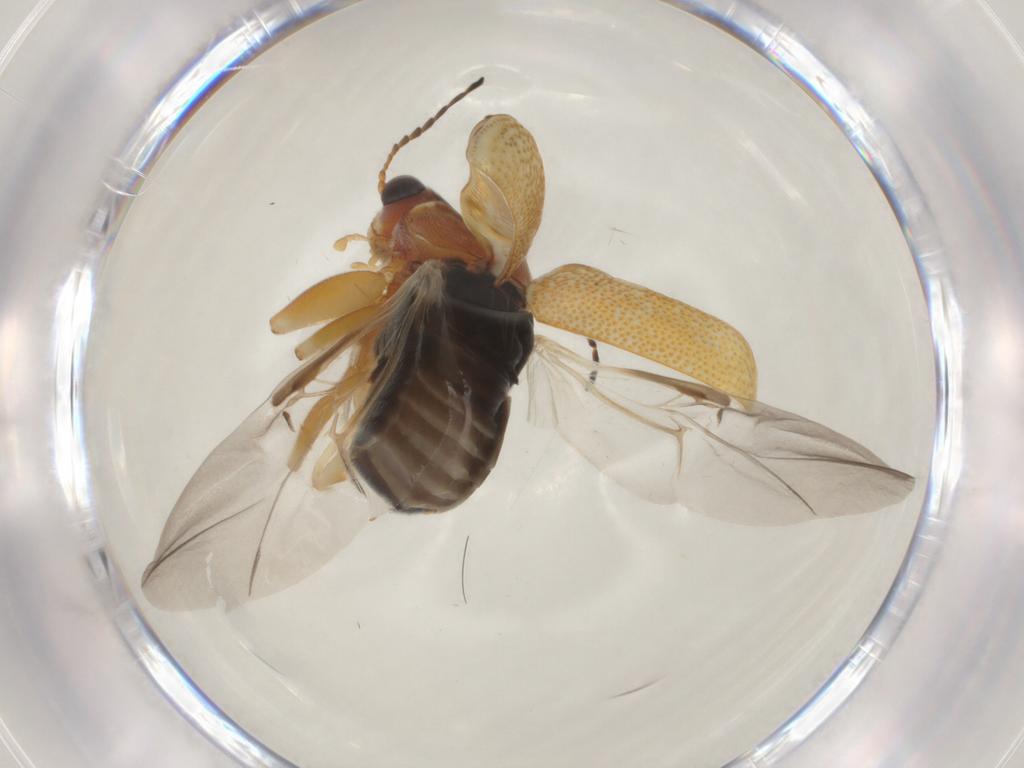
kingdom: Animalia
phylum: Arthropoda
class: Insecta
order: Coleoptera
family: Chrysomelidae
